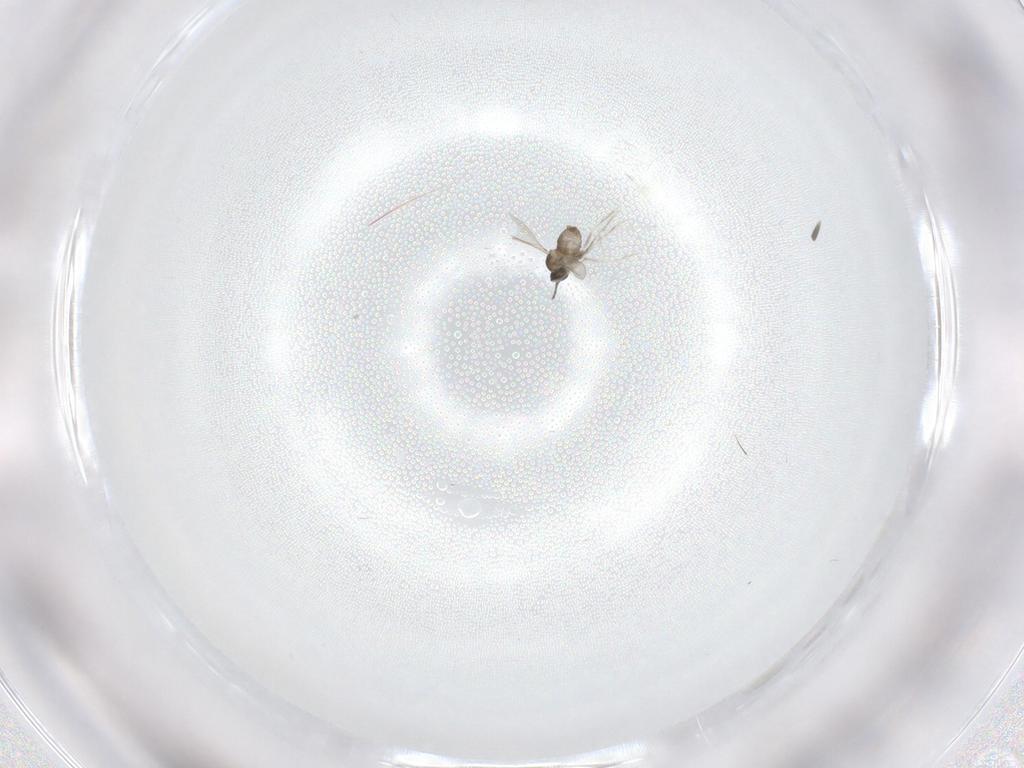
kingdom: Animalia
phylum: Arthropoda
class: Insecta
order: Diptera
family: Cecidomyiidae
